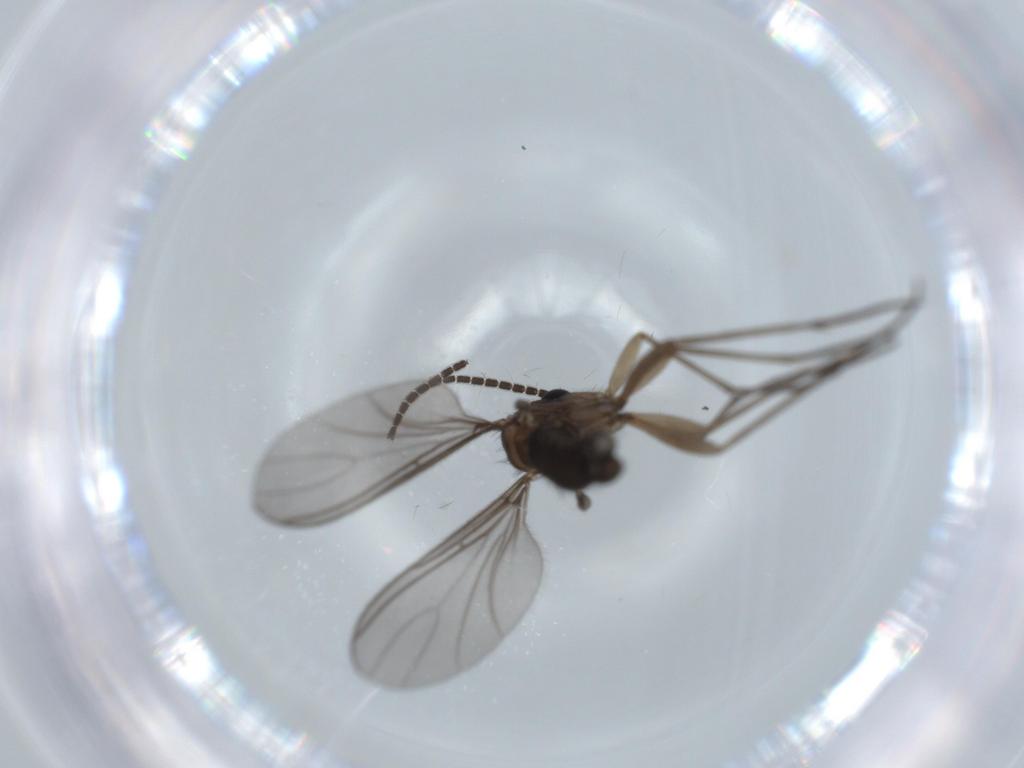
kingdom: Animalia
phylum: Arthropoda
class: Insecta
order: Diptera
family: Sciaridae
